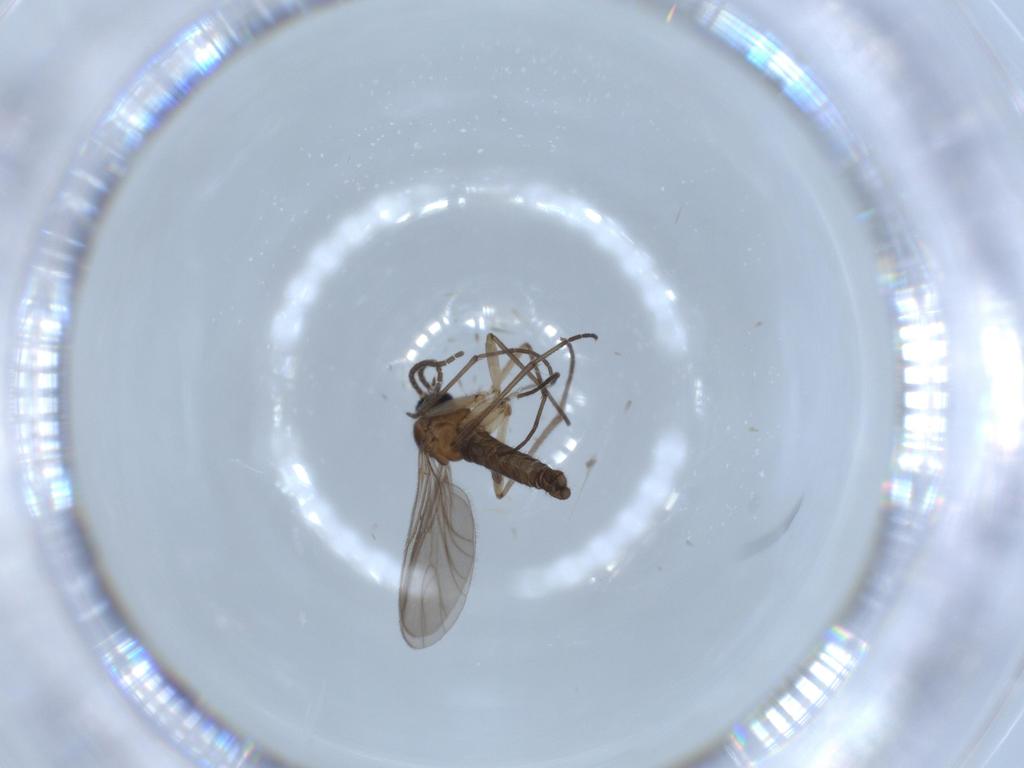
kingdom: Animalia
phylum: Arthropoda
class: Insecta
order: Diptera
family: Sciaridae
